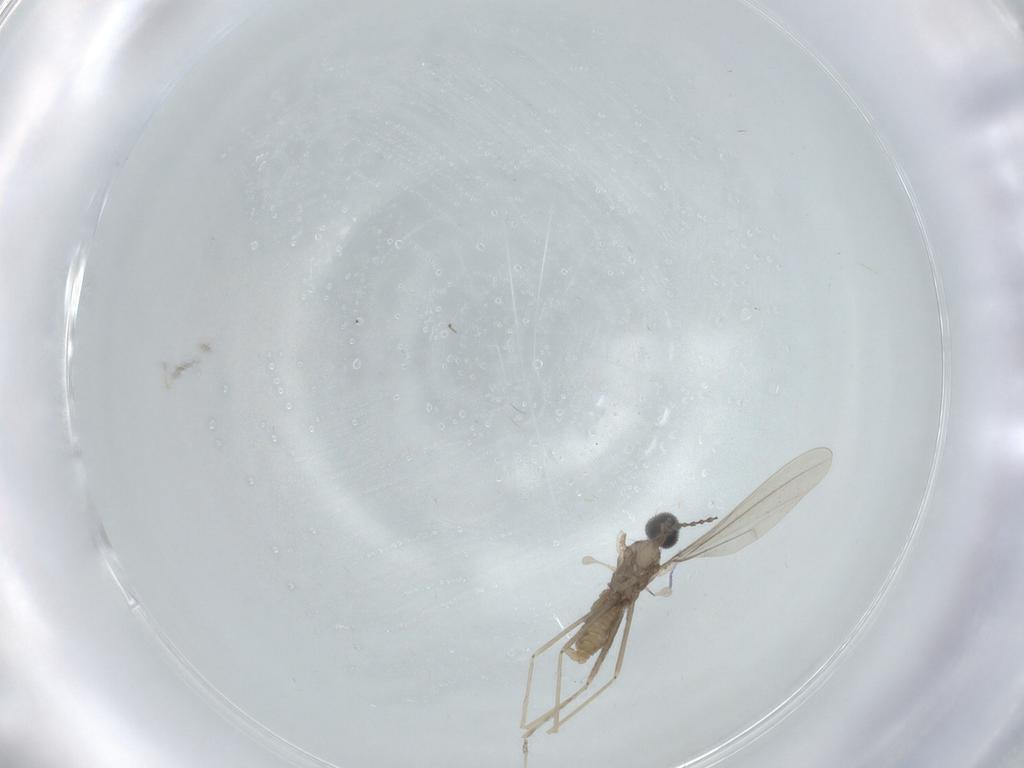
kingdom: Animalia
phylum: Arthropoda
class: Insecta
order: Diptera
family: Cecidomyiidae
